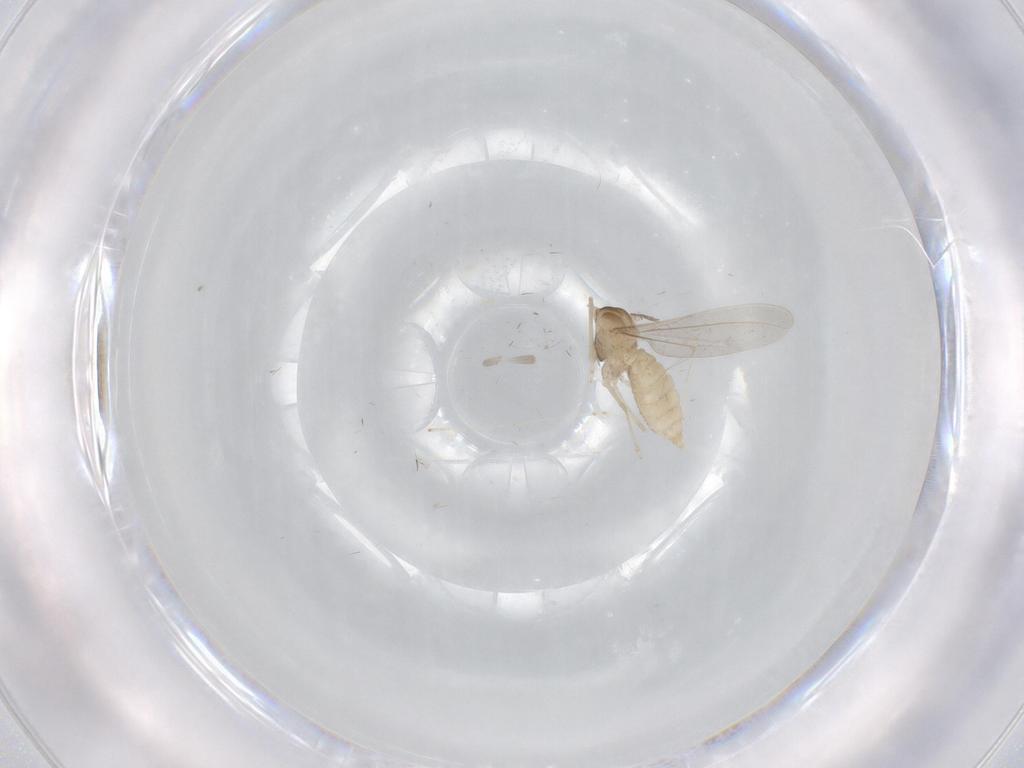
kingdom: Animalia
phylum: Arthropoda
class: Insecta
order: Diptera
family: Cecidomyiidae
